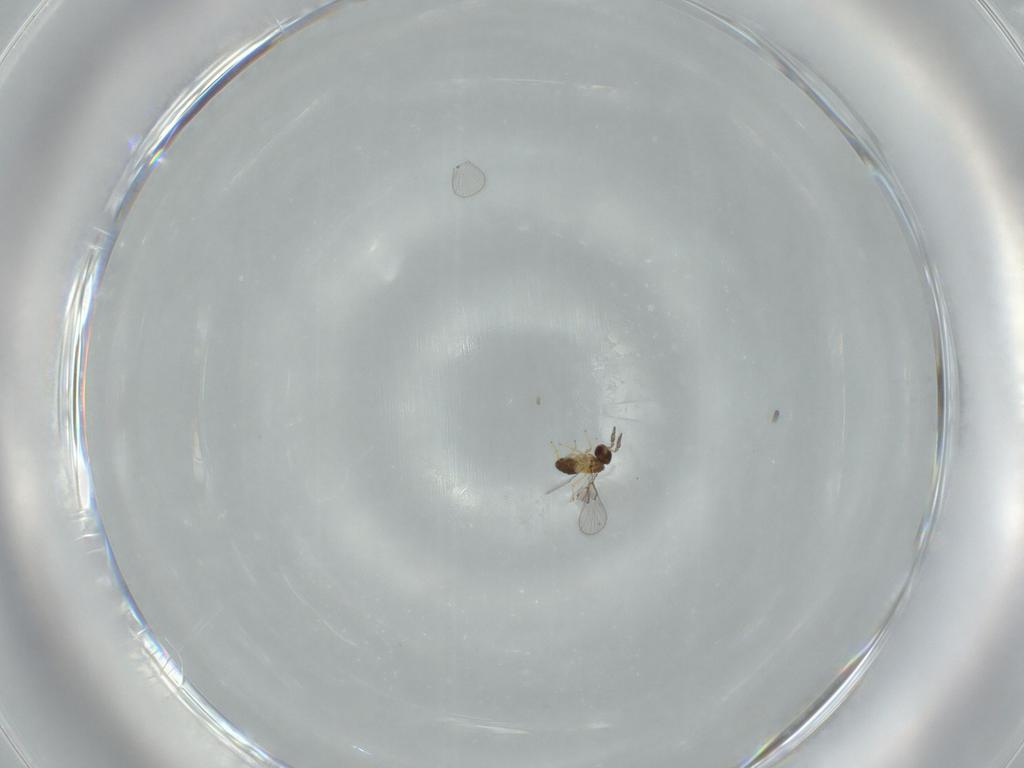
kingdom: Animalia
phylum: Arthropoda
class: Insecta
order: Hymenoptera
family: Trichogrammatidae
